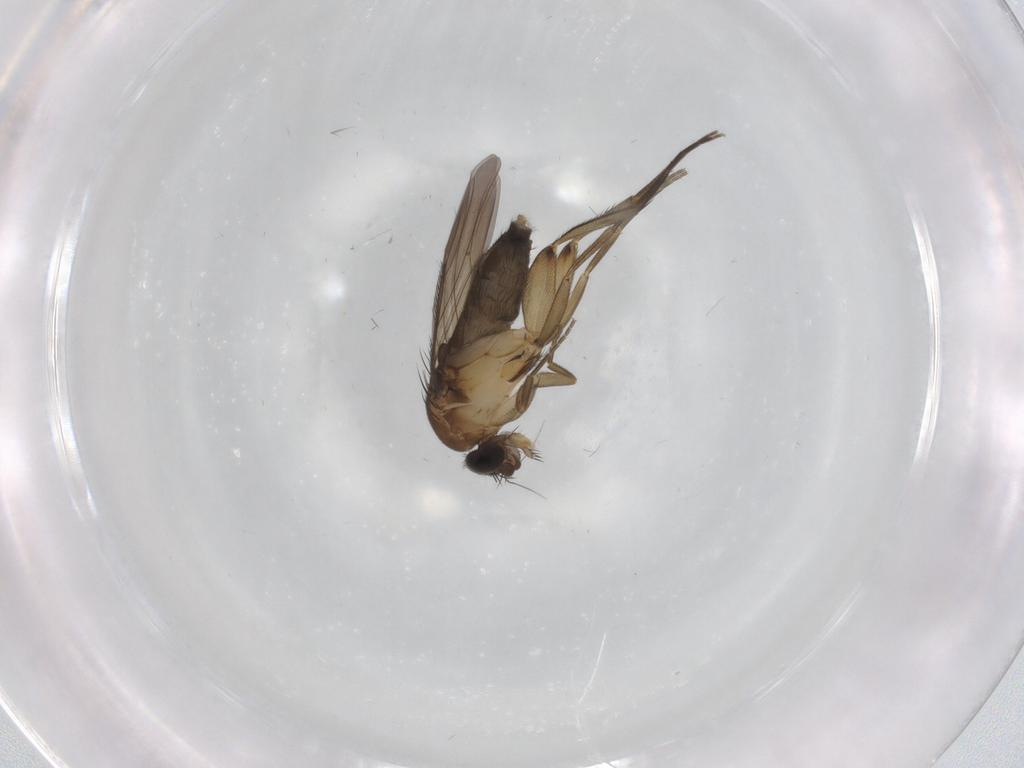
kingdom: Animalia
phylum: Arthropoda
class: Insecta
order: Diptera
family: Phoridae
